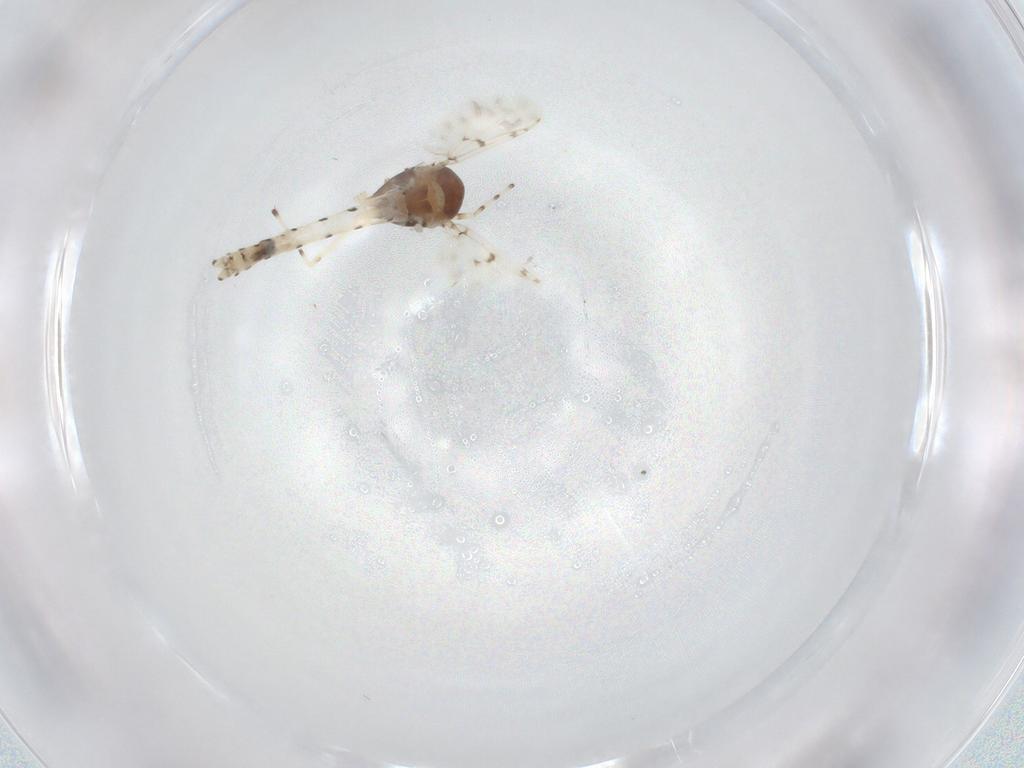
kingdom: Animalia
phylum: Arthropoda
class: Insecta
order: Diptera
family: Chironomidae
